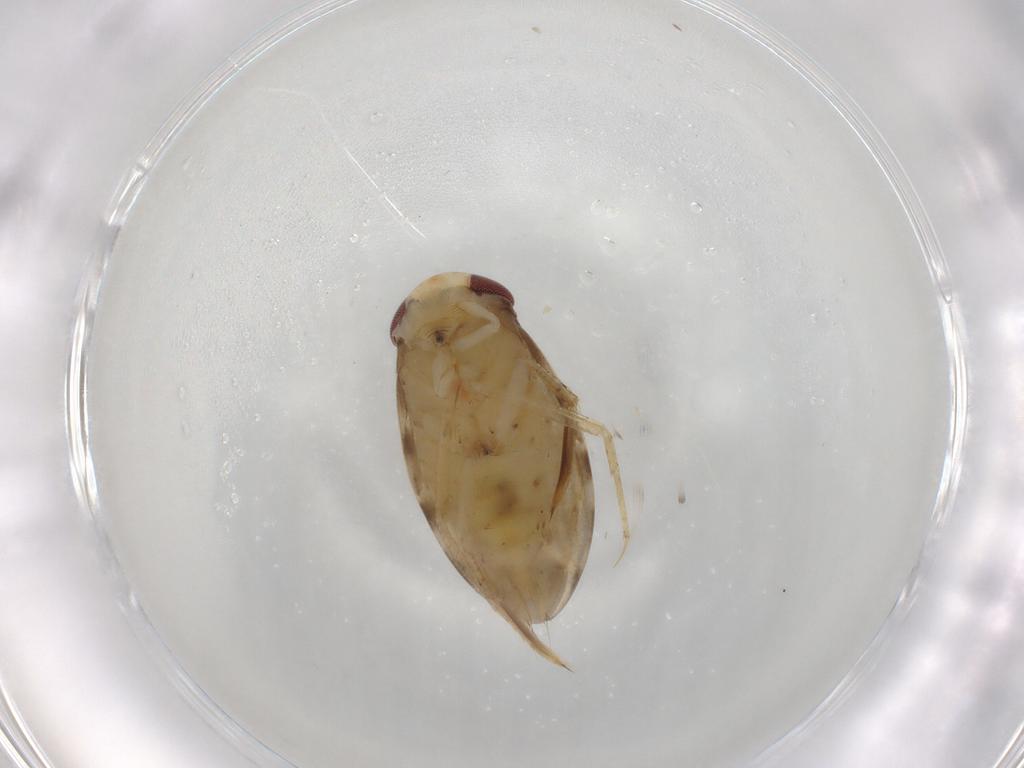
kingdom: Animalia
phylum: Arthropoda
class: Insecta
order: Hemiptera
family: Corixidae
